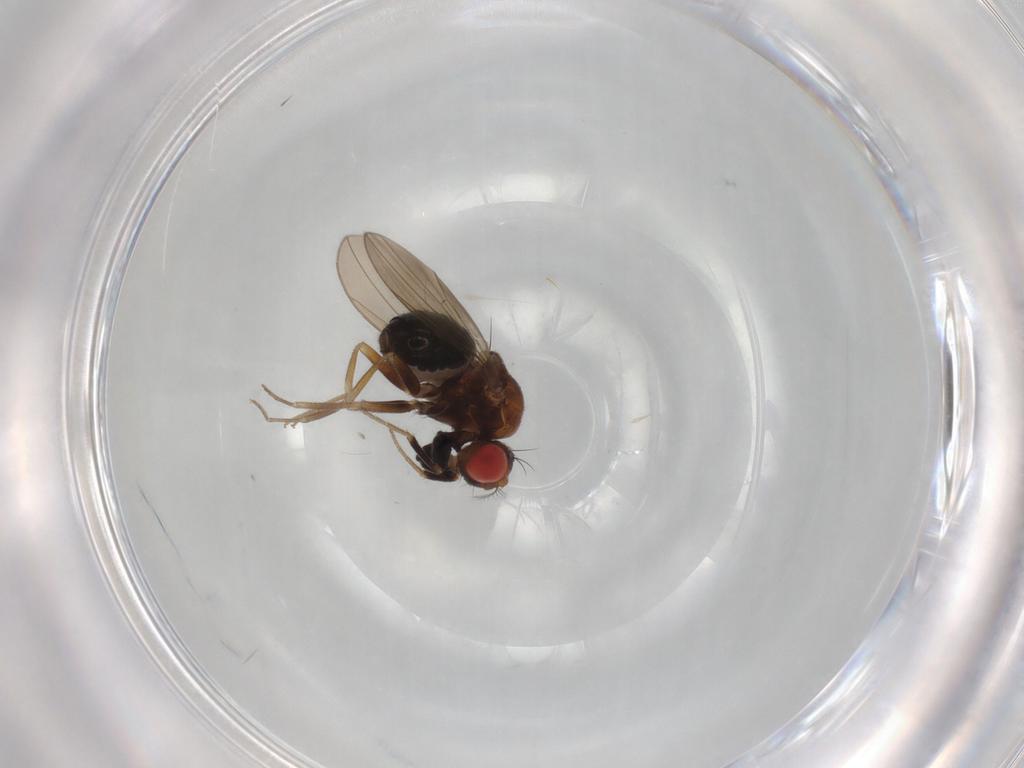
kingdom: Animalia
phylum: Arthropoda
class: Insecta
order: Diptera
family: Drosophilidae
